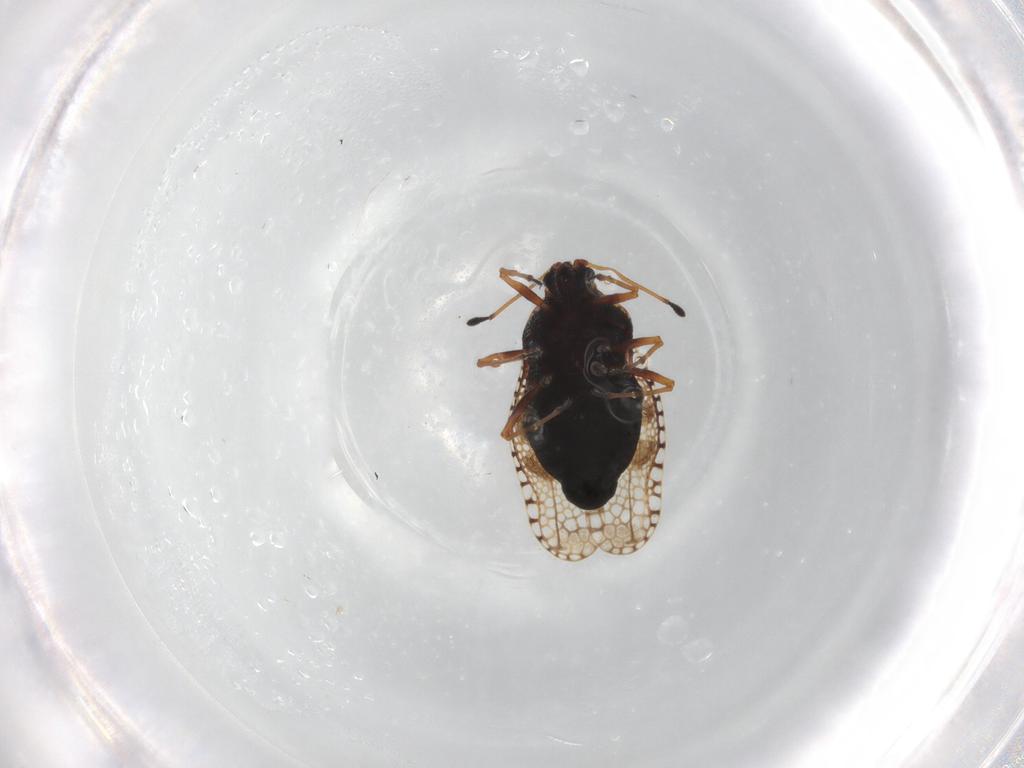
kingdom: Animalia
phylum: Arthropoda
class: Insecta
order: Hemiptera
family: Tingidae
